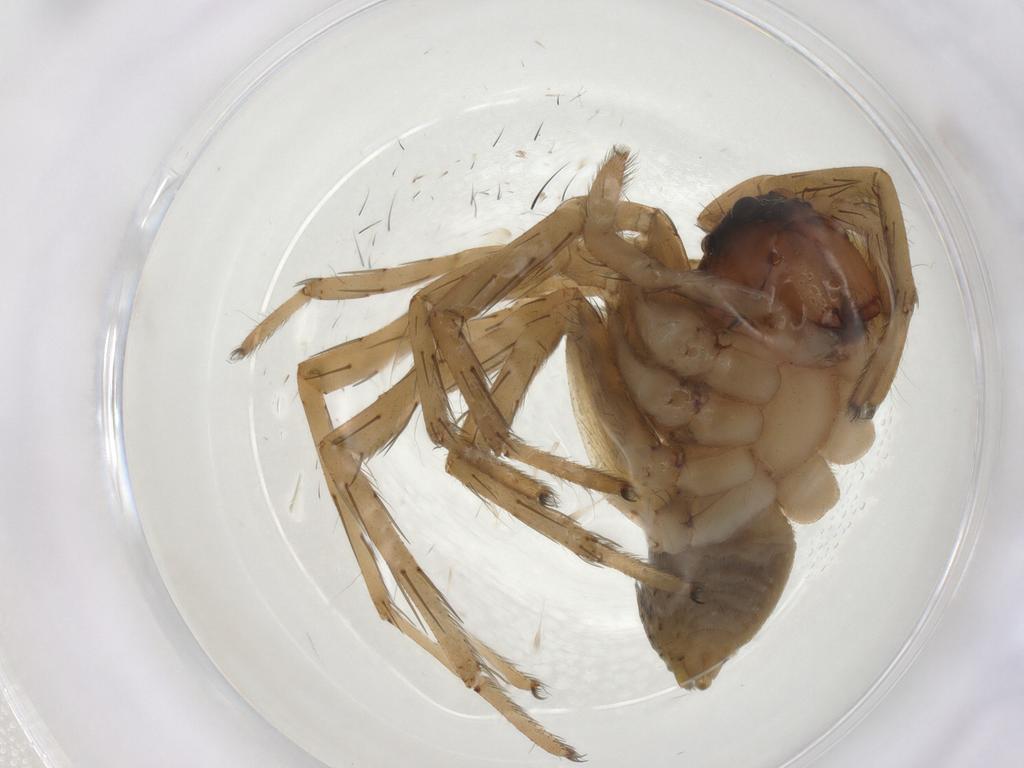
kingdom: Animalia
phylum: Arthropoda
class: Arachnida
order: Araneae
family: Lycosidae
